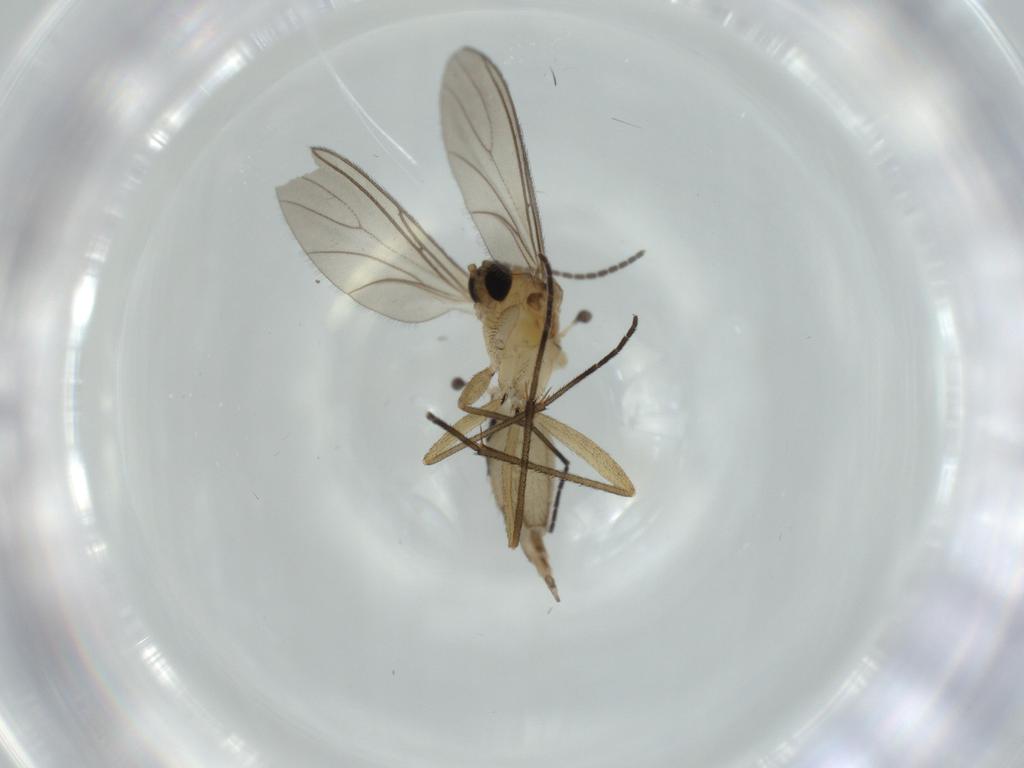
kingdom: Animalia
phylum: Arthropoda
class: Insecta
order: Diptera
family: Sciaridae
